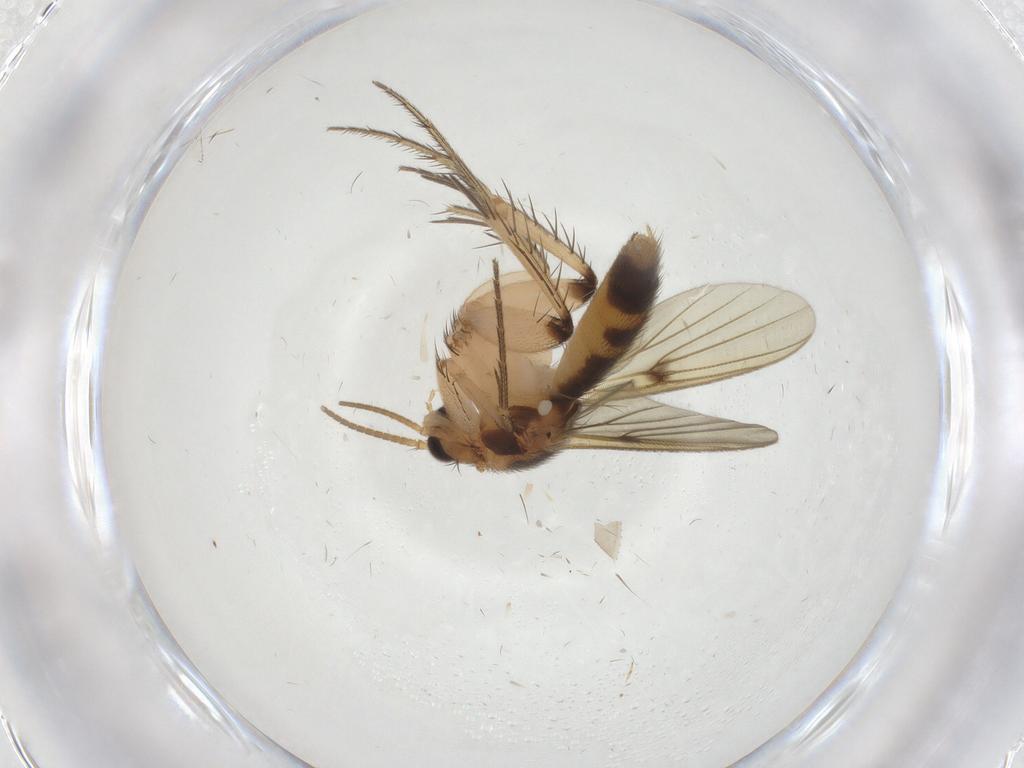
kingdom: Animalia
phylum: Arthropoda
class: Insecta
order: Diptera
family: Mycetophilidae
